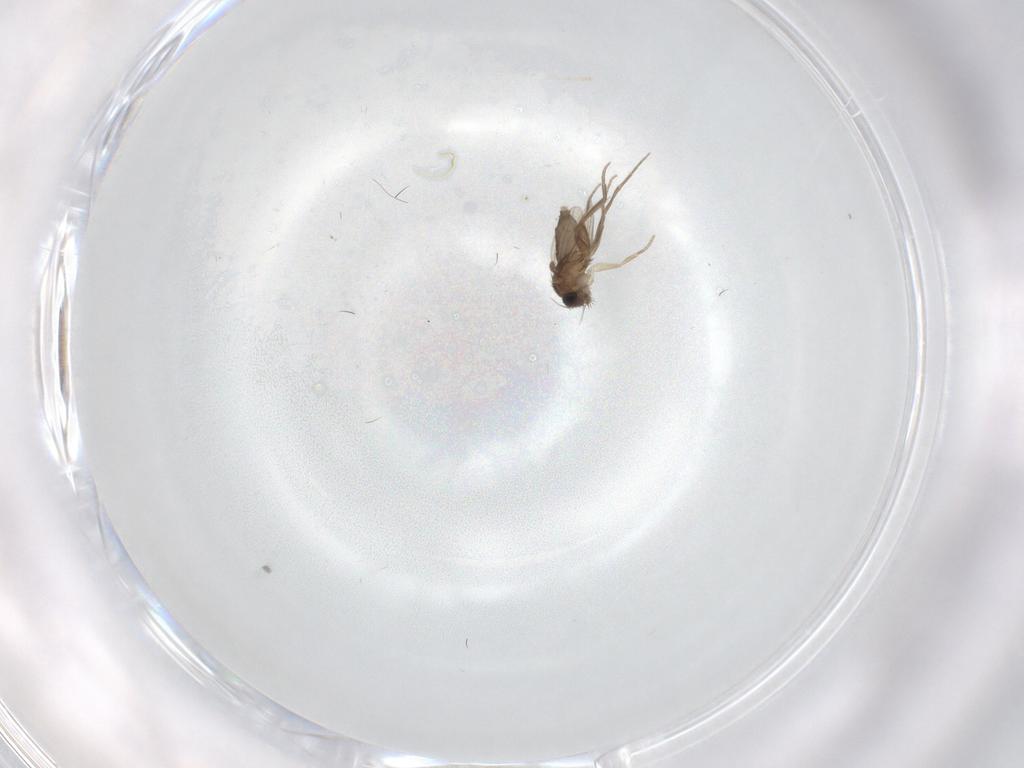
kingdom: Animalia
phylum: Arthropoda
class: Insecta
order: Diptera
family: Phoridae
